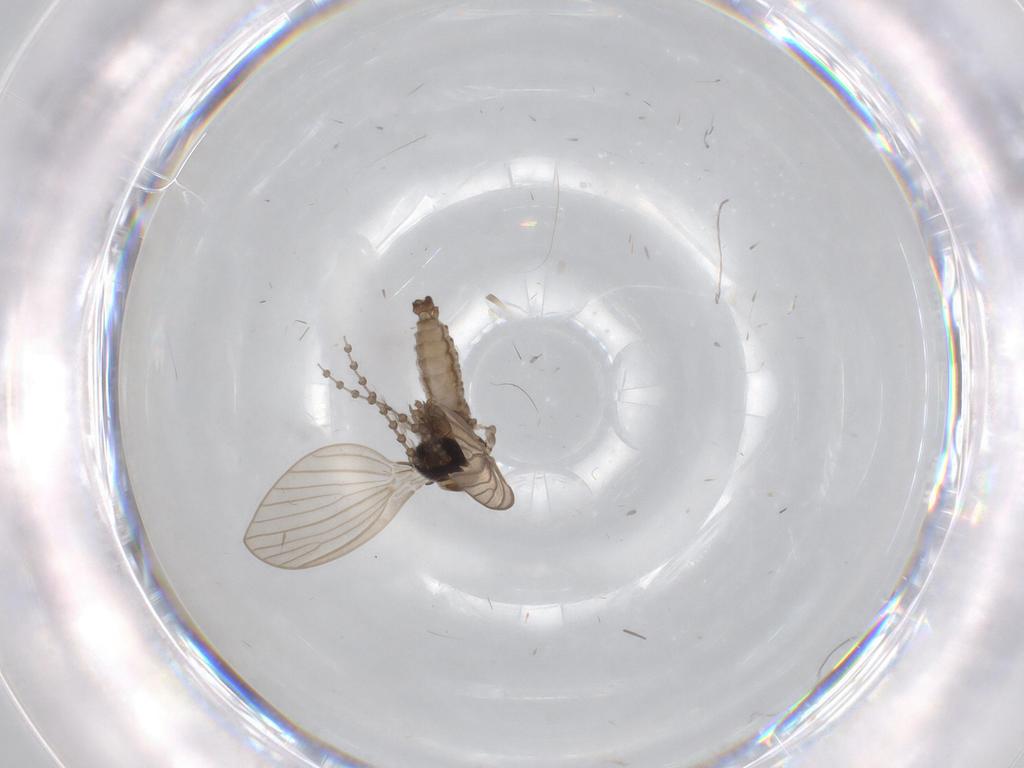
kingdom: Animalia
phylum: Arthropoda
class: Insecta
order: Diptera
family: Psychodidae
